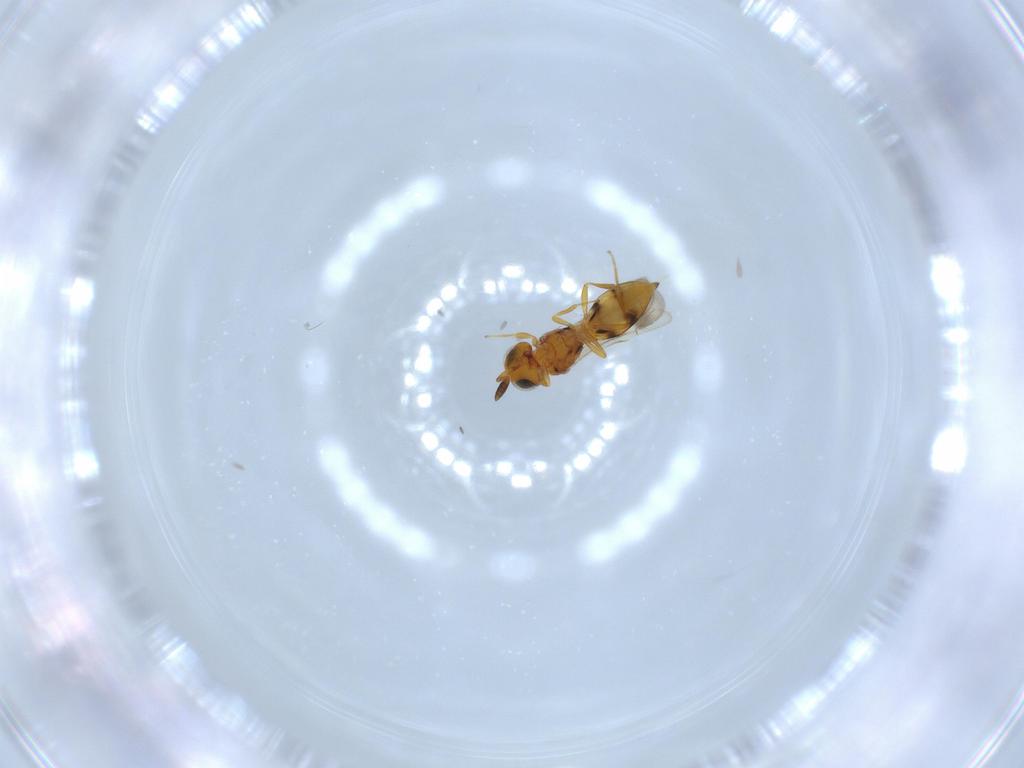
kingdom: Animalia
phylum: Arthropoda
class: Insecta
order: Hymenoptera
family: Scelionidae
